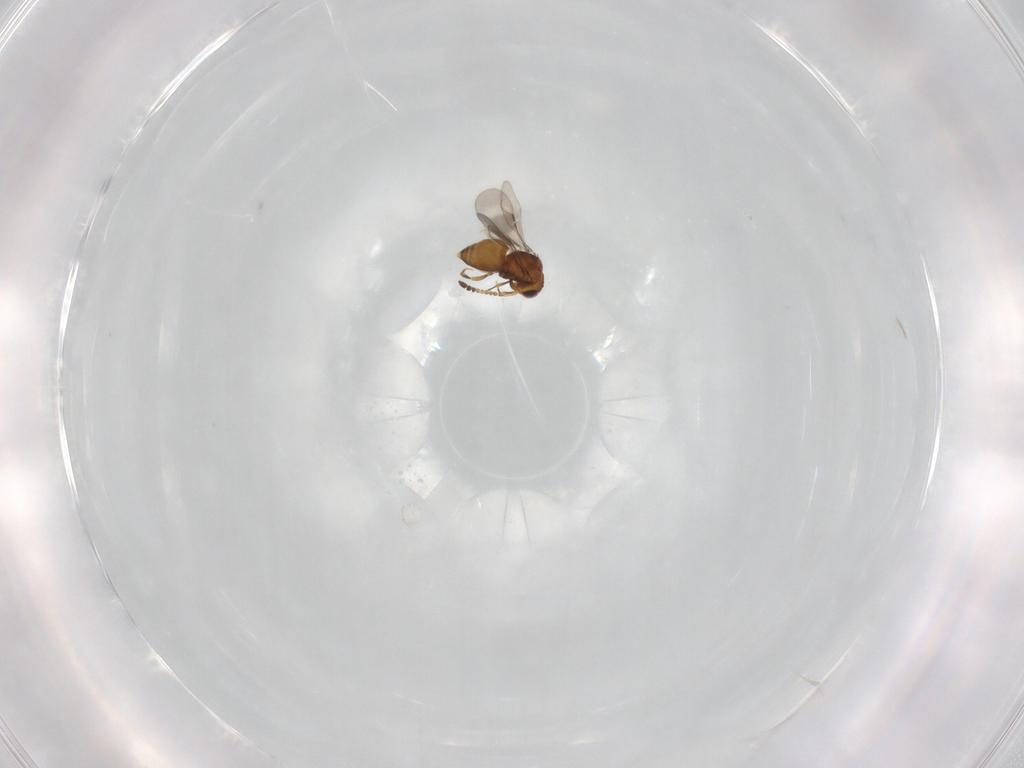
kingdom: Animalia
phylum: Arthropoda
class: Insecta
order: Diptera
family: Empididae
